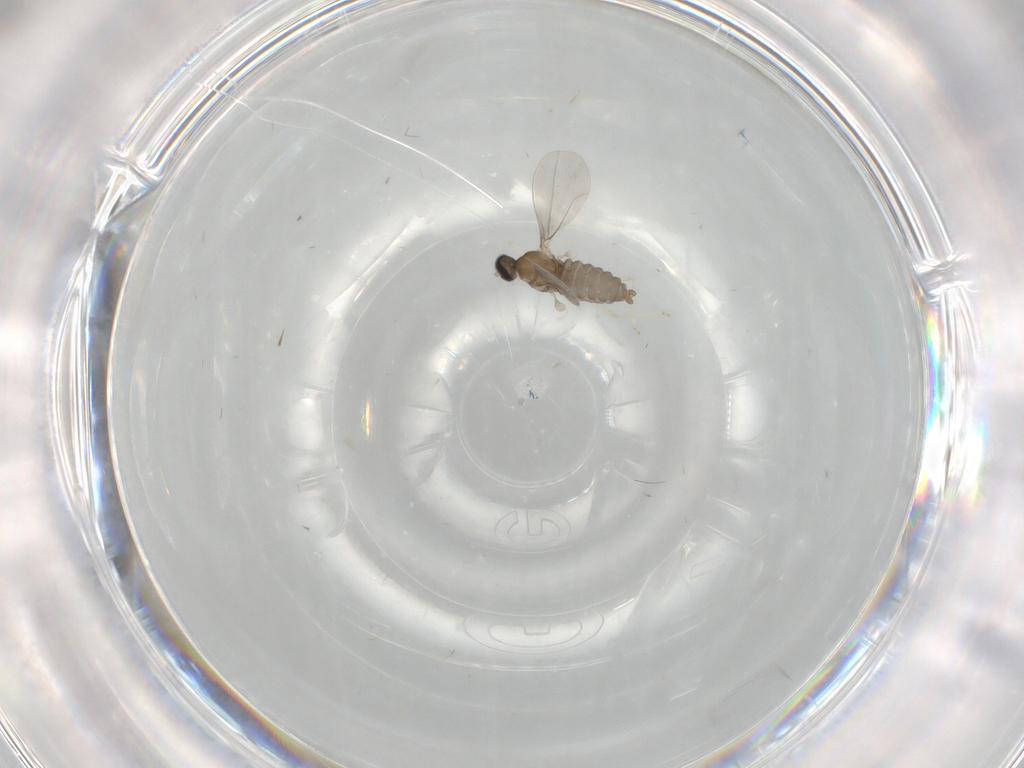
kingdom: Animalia
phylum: Arthropoda
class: Insecta
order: Diptera
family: Cecidomyiidae
